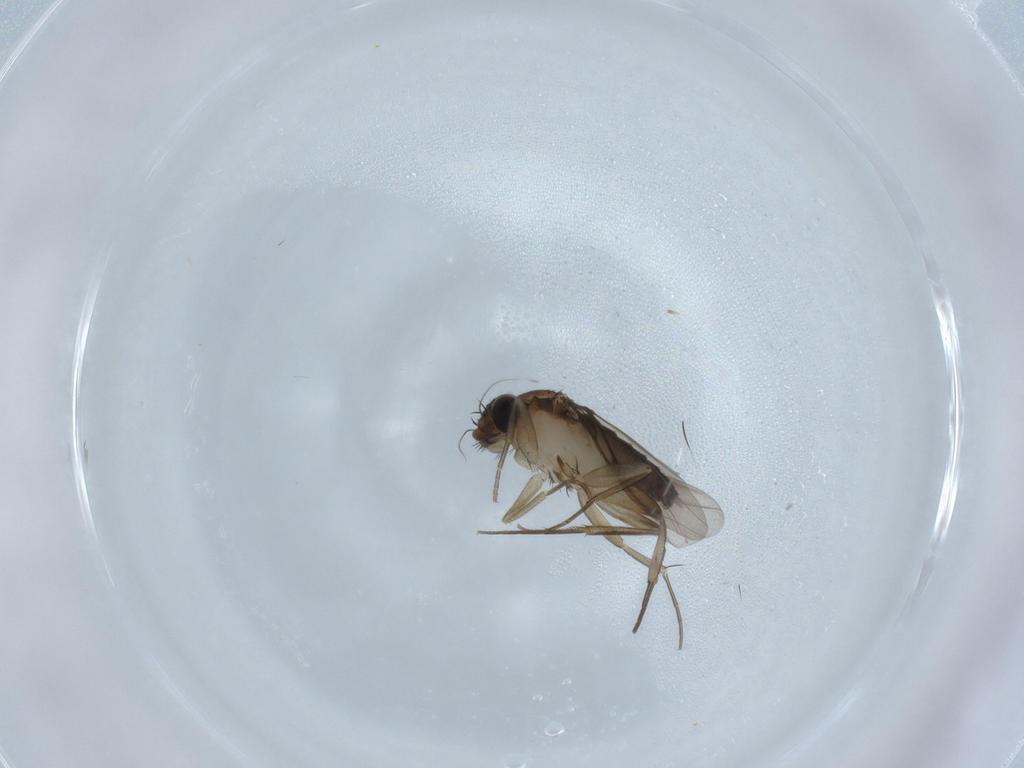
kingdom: Animalia
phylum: Arthropoda
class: Insecta
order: Diptera
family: Phoridae
